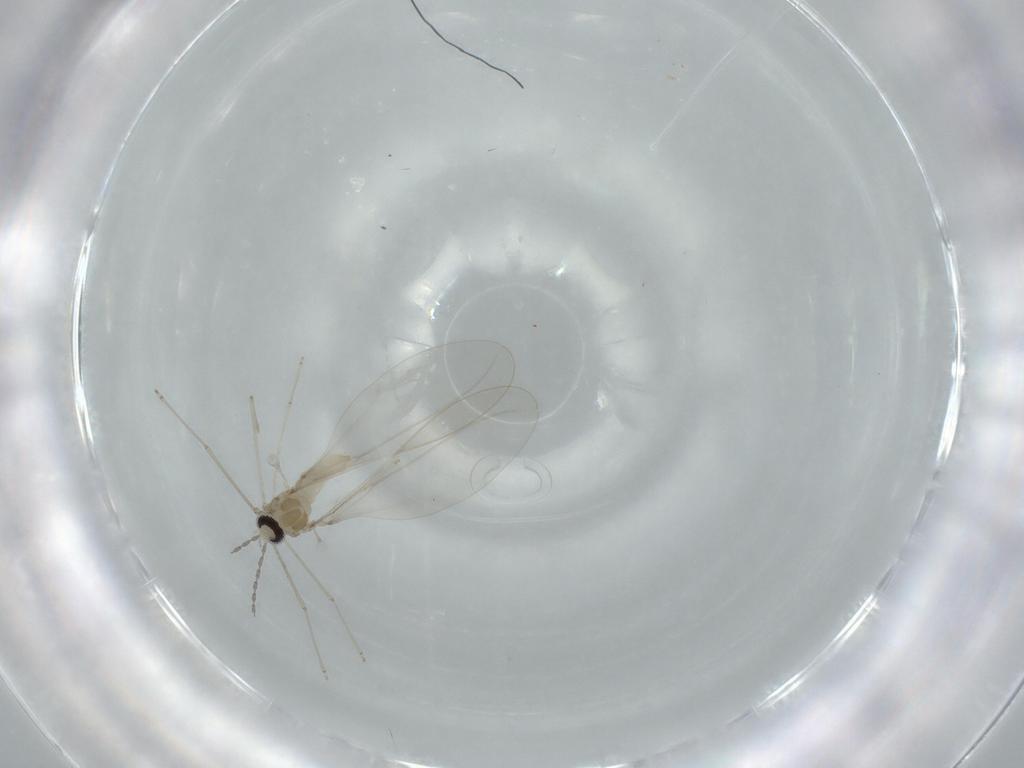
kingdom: Animalia
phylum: Arthropoda
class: Insecta
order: Diptera
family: Cecidomyiidae
